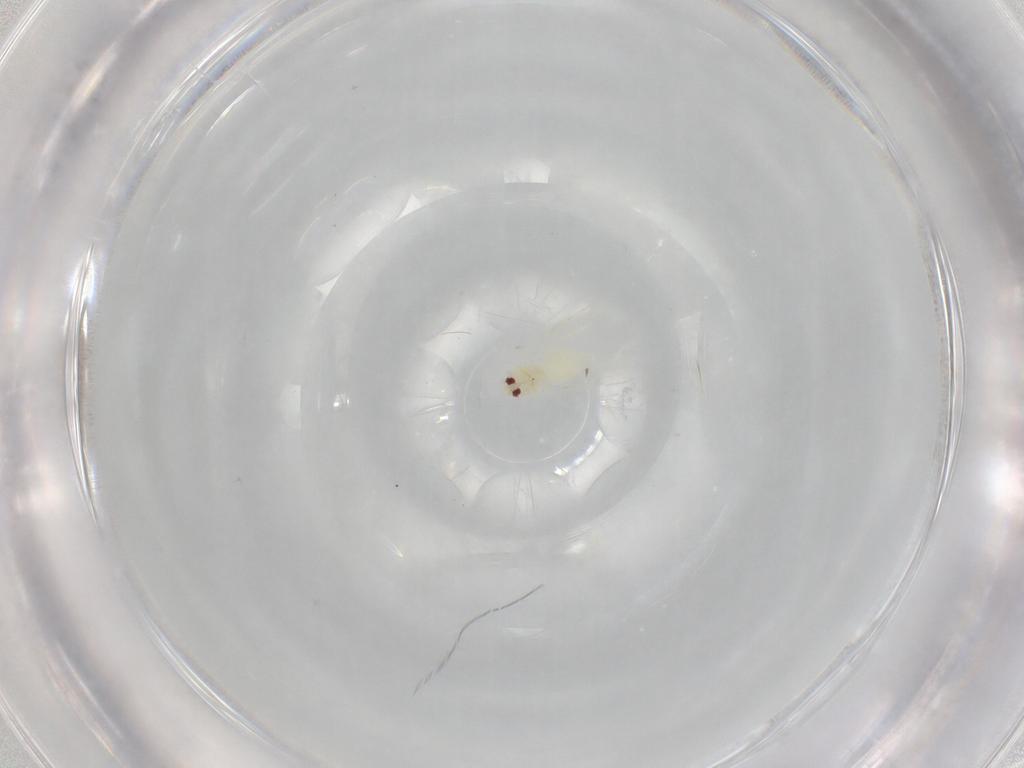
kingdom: Animalia
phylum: Arthropoda
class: Insecta
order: Hemiptera
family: Aleyrodidae
